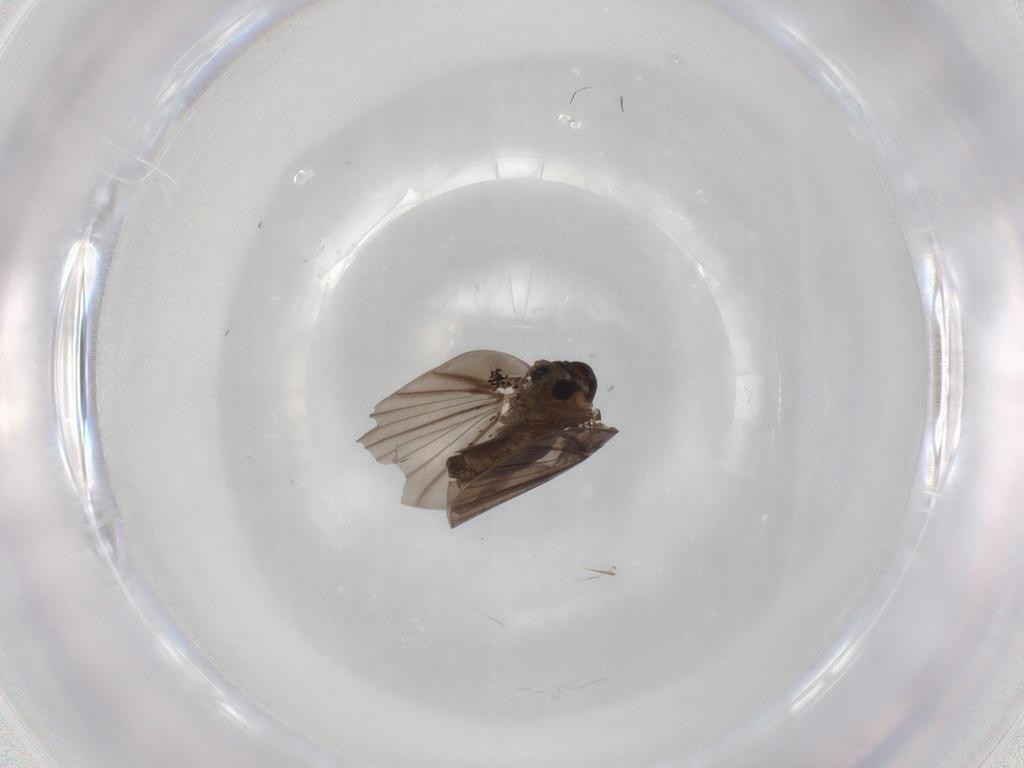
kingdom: Animalia
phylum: Arthropoda
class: Insecta
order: Diptera
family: Psychodidae
